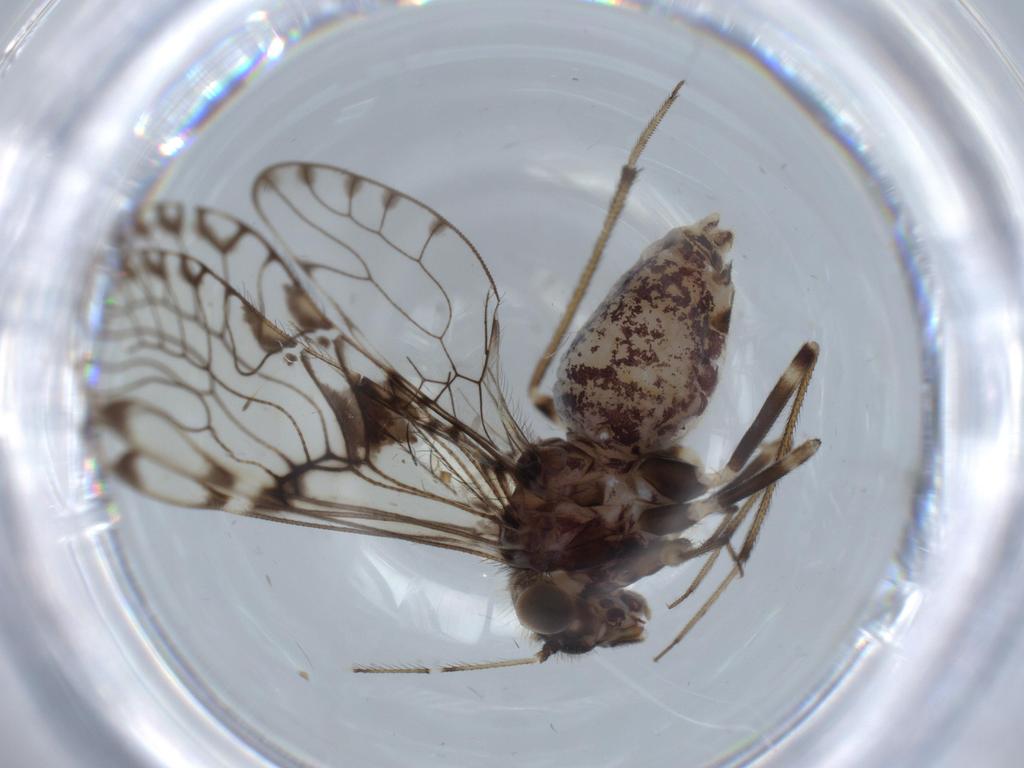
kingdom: Animalia
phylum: Arthropoda
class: Insecta
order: Psocodea
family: Lepidopsocidae
